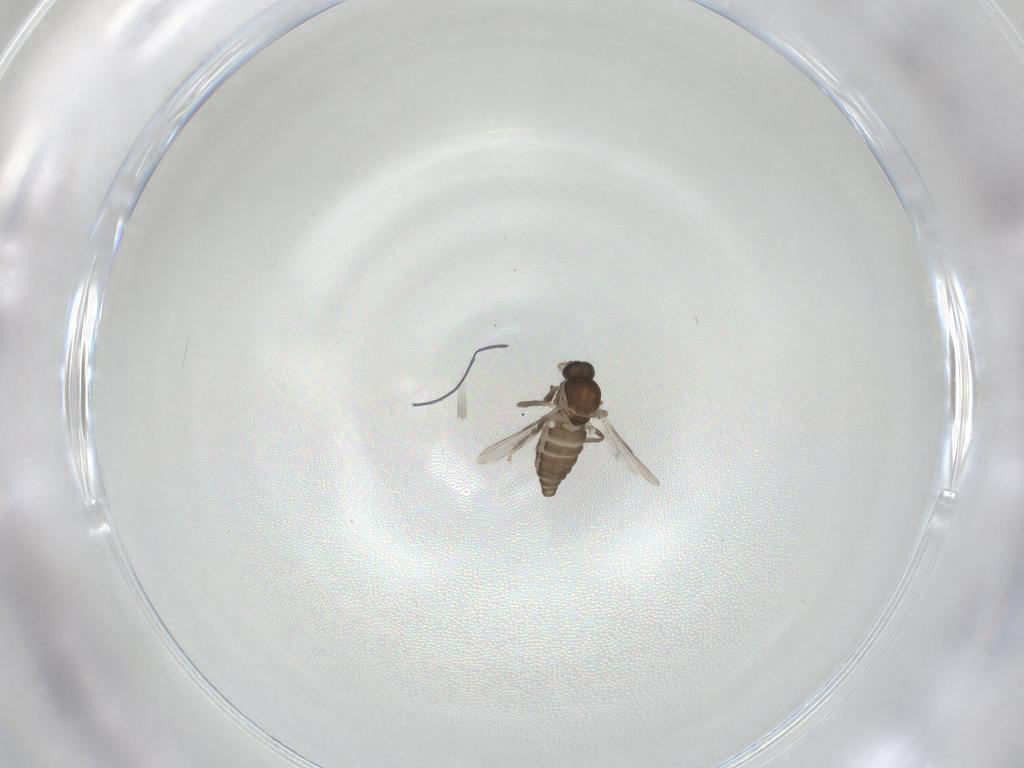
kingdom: Animalia
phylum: Arthropoda
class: Insecta
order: Diptera
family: Ceratopogonidae
